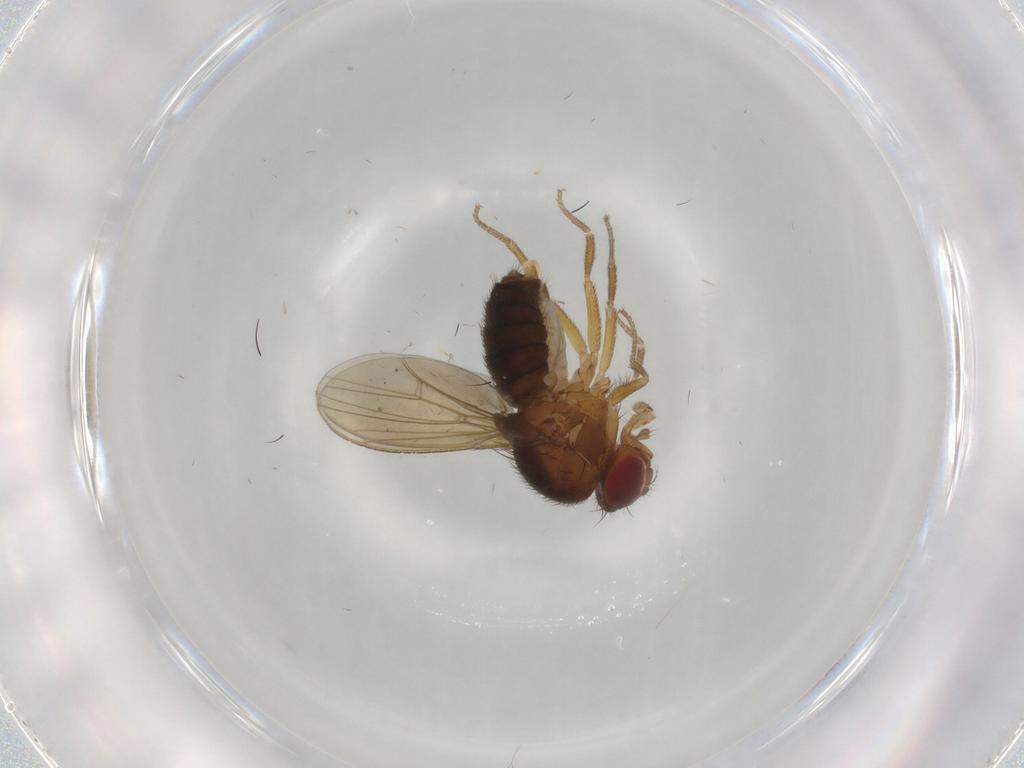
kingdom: Animalia
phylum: Arthropoda
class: Insecta
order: Diptera
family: Drosophilidae
